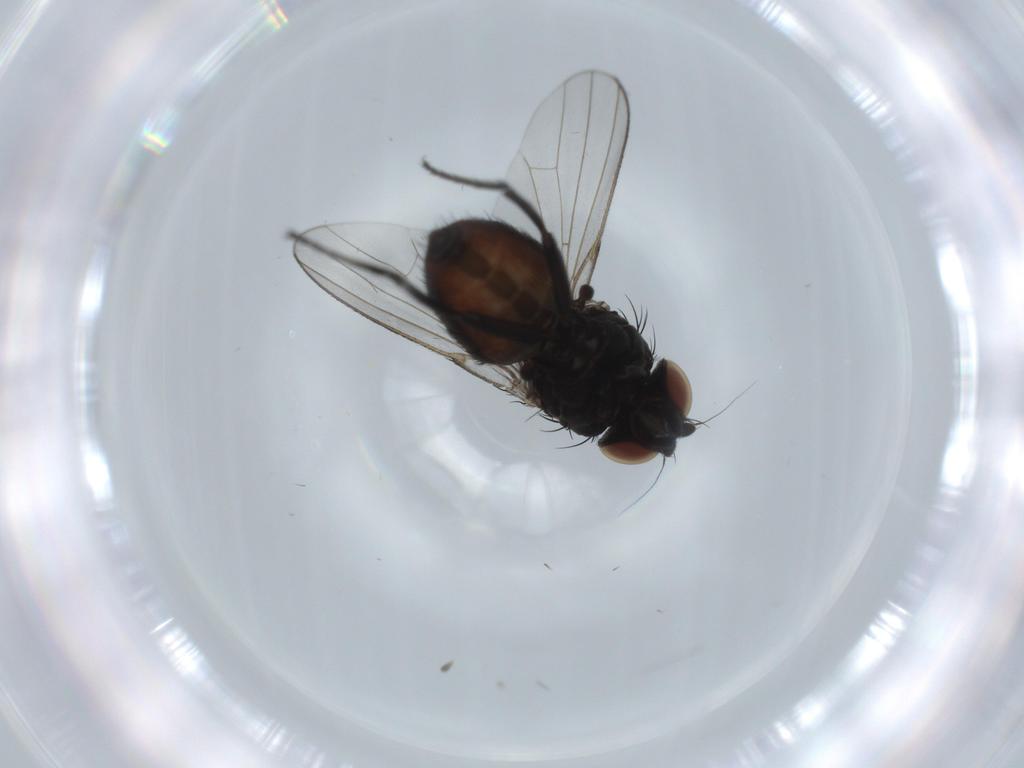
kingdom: Animalia
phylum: Arthropoda
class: Insecta
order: Diptera
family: Milichiidae
